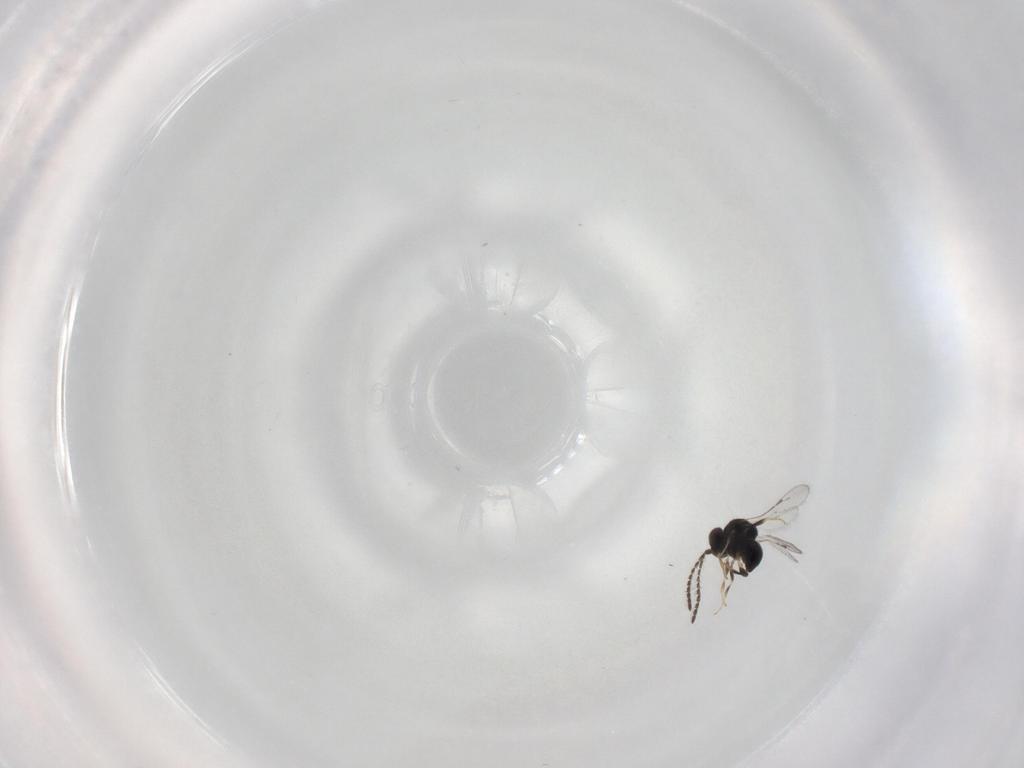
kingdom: Animalia
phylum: Arthropoda
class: Insecta
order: Hymenoptera
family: Ceraphronidae
